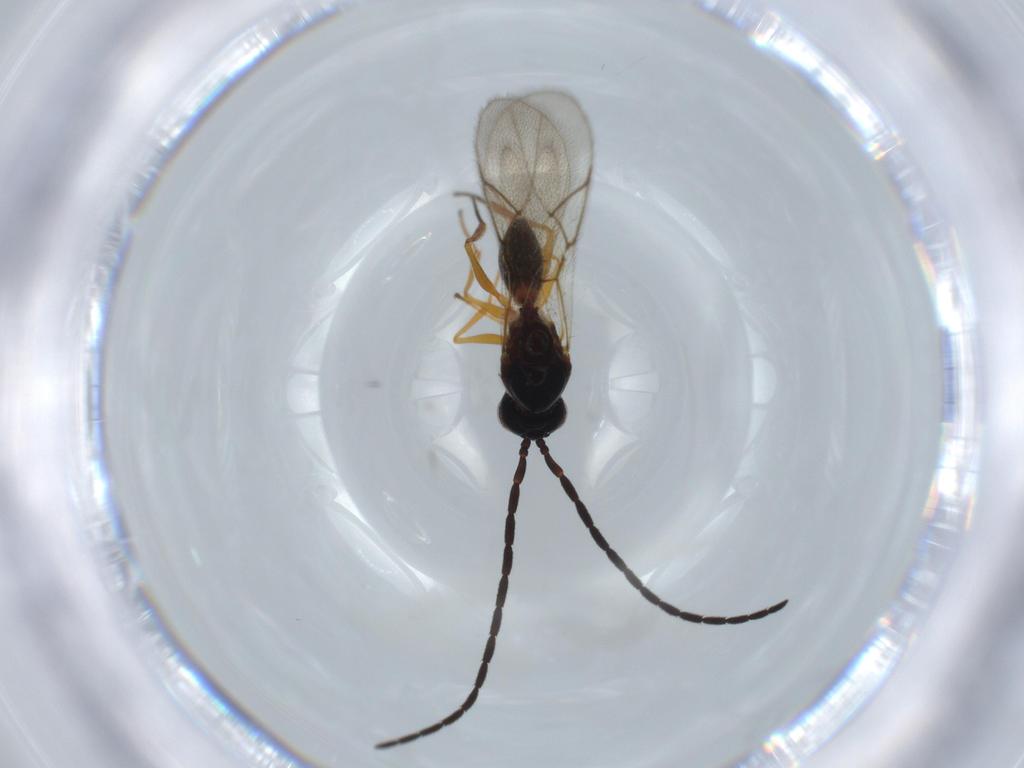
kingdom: Animalia
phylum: Arthropoda
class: Insecta
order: Hymenoptera
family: Figitidae
